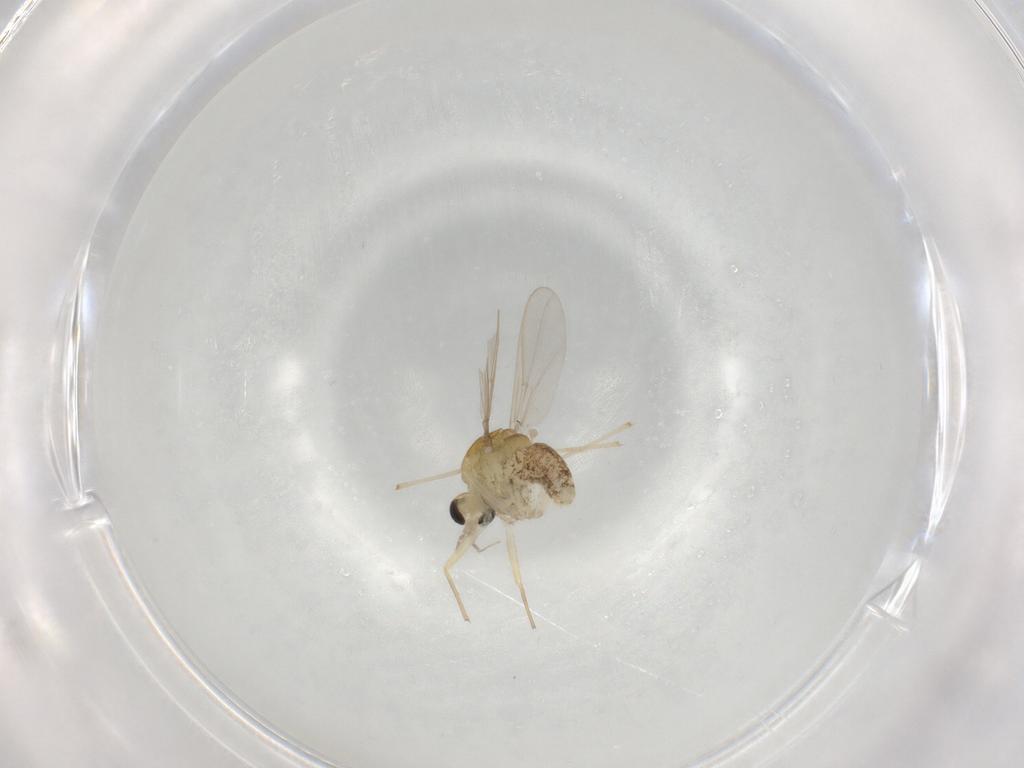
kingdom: Animalia
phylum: Arthropoda
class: Insecta
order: Diptera
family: Chironomidae
